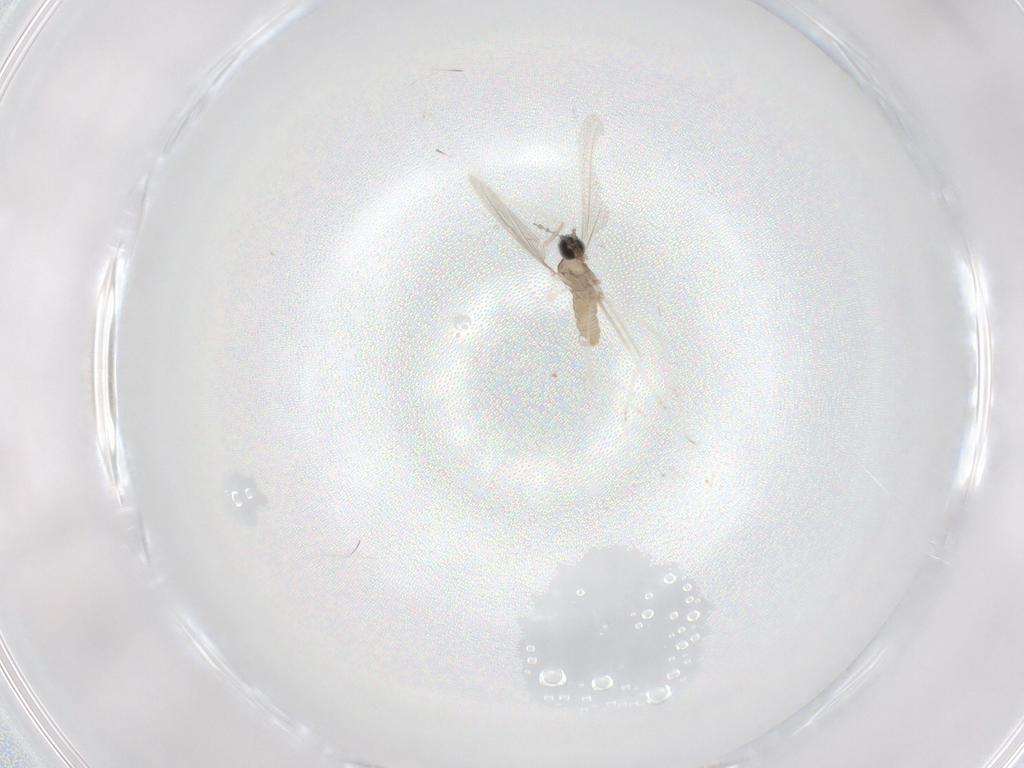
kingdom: Animalia
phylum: Arthropoda
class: Insecta
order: Diptera
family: Cecidomyiidae
